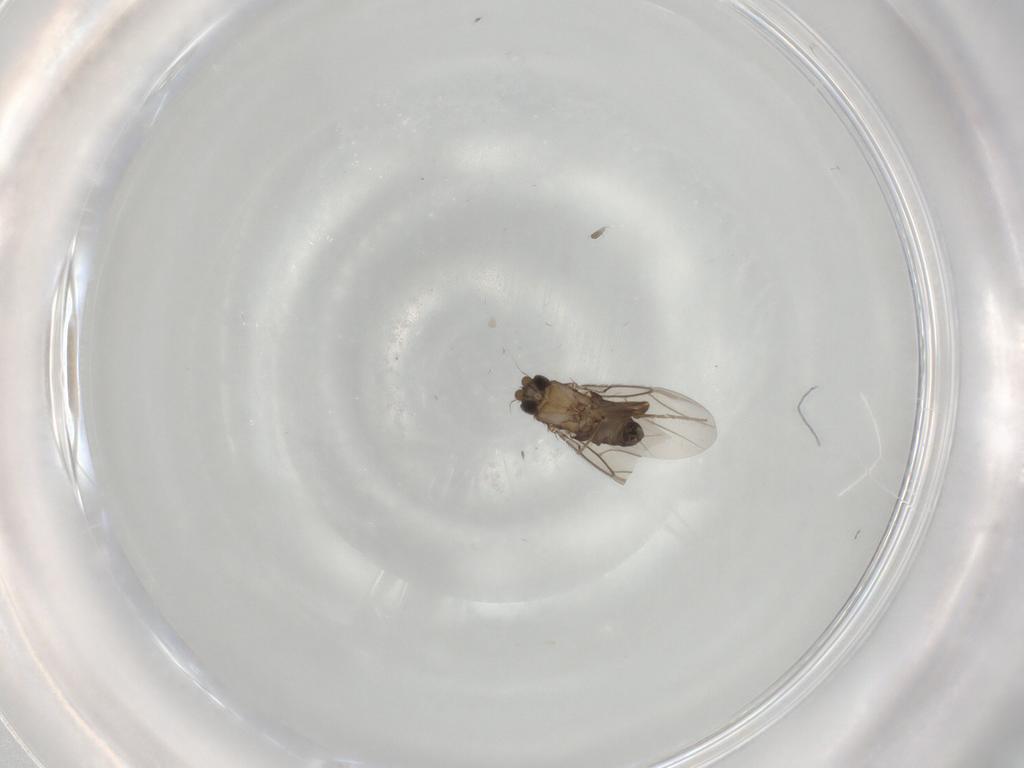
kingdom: Animalia
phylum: Arthropoda
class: Insecta
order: Diptera
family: Phoridae
